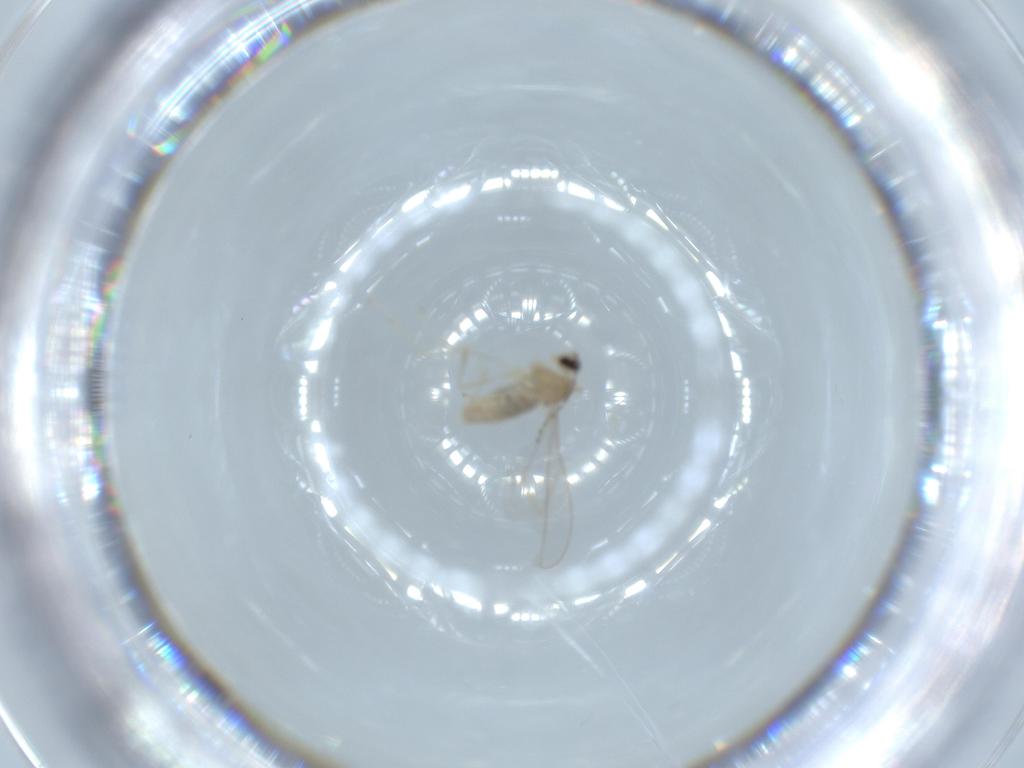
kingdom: Animalia
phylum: Arthropoda
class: Insecta
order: Diptera
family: Cecidomyiidae
